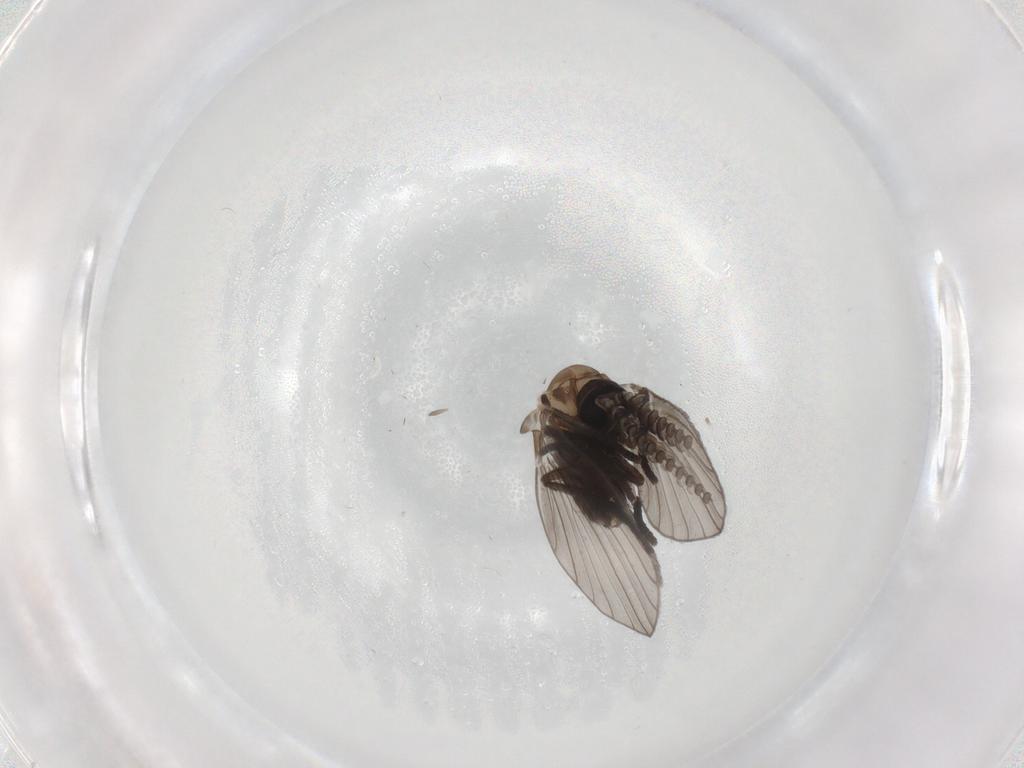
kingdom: Animalia
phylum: Arthropoda
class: Insecta
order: Diptera
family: Psychodidae
